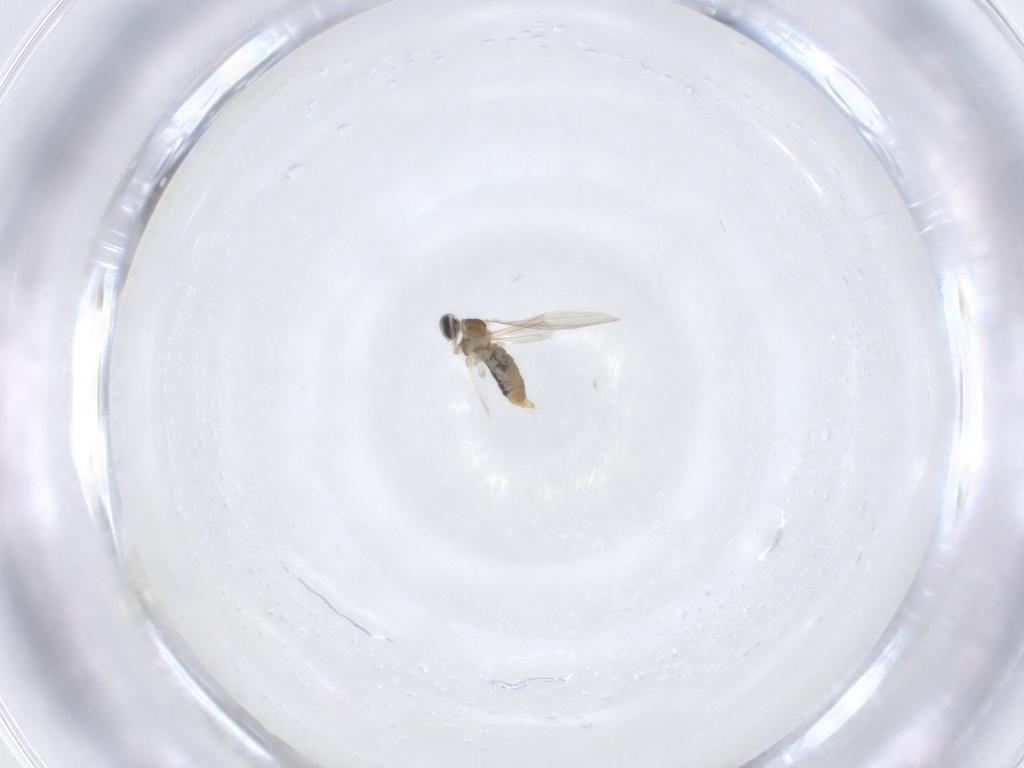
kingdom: Animalia
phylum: Arthropoda
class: Insecta
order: Diptera
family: Cecidomyiidae
